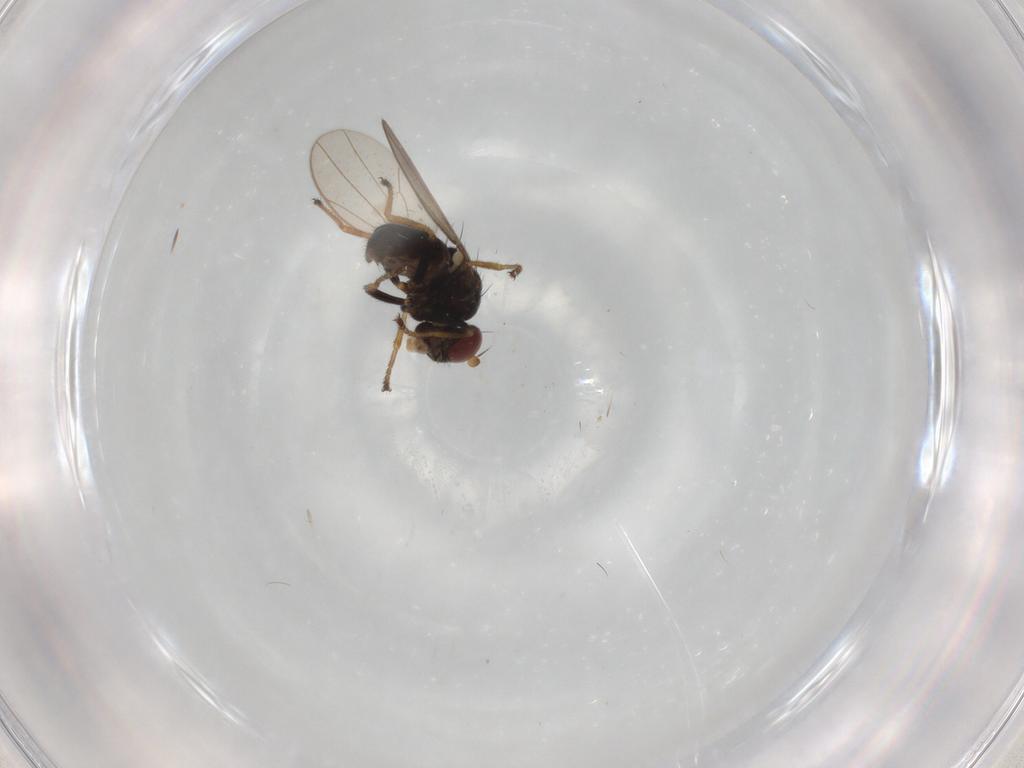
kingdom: Animalia
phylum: Arthropoda
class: Insecta
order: Diptera
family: Ephydridae
